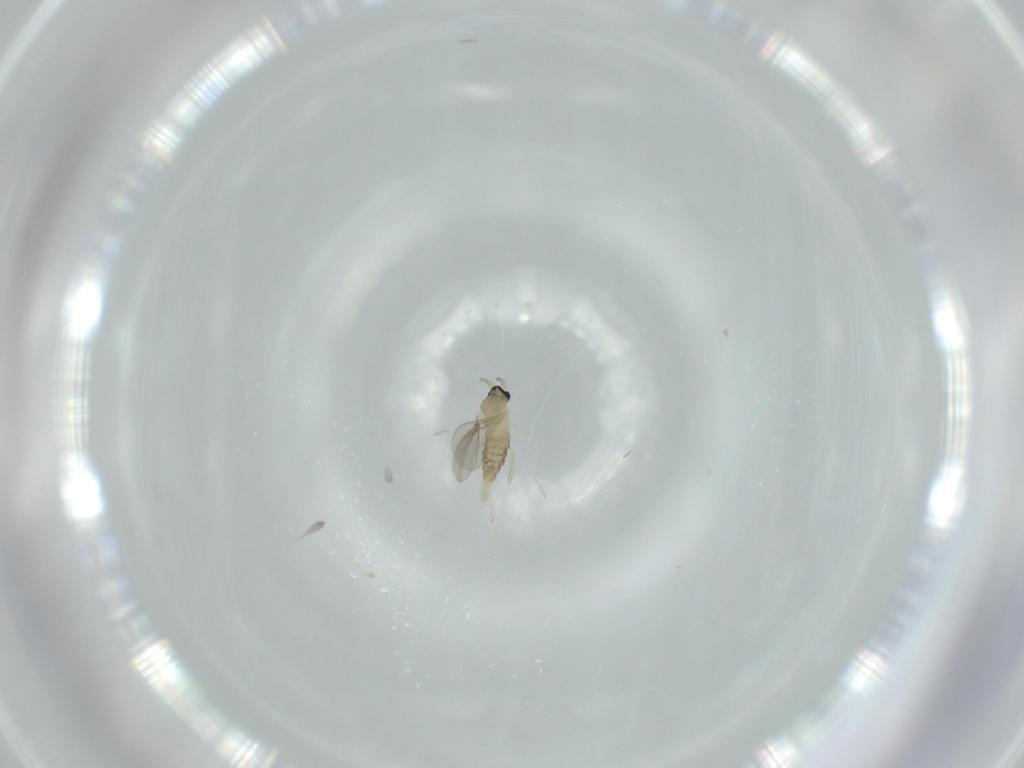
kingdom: Animalia
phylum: Arthropoda
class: Insecta
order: Diptera
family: Cecidomyiidae
